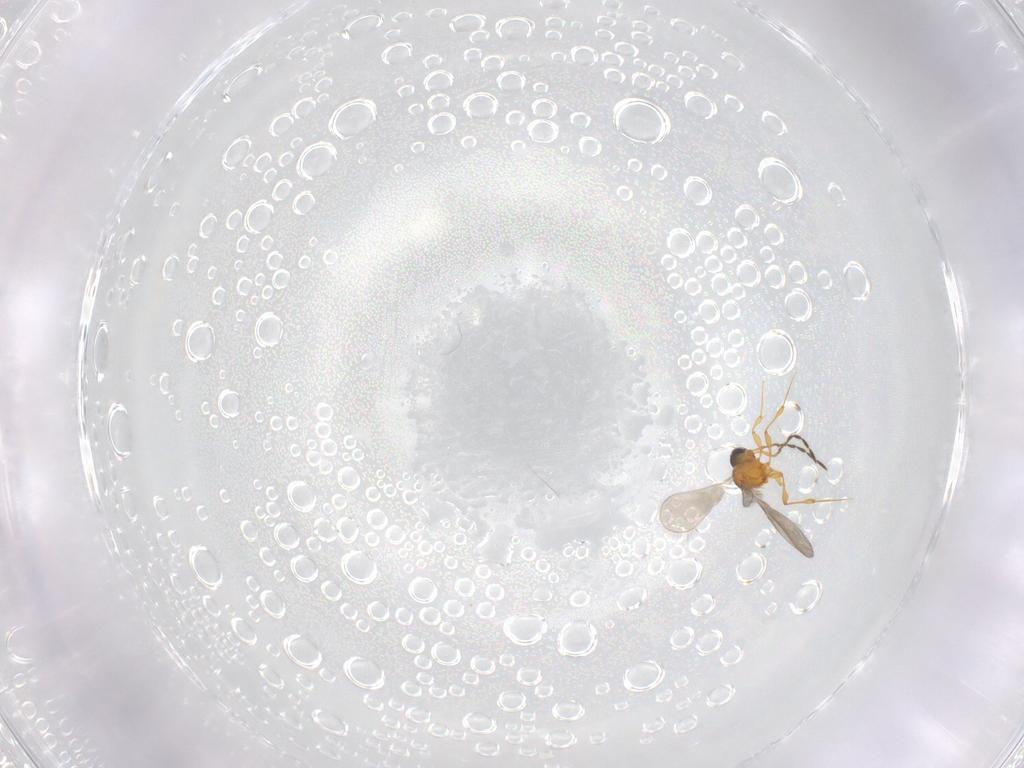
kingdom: Animalia
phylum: Arthropoda
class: Insecta
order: Hymenoptera
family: Platygastridae
